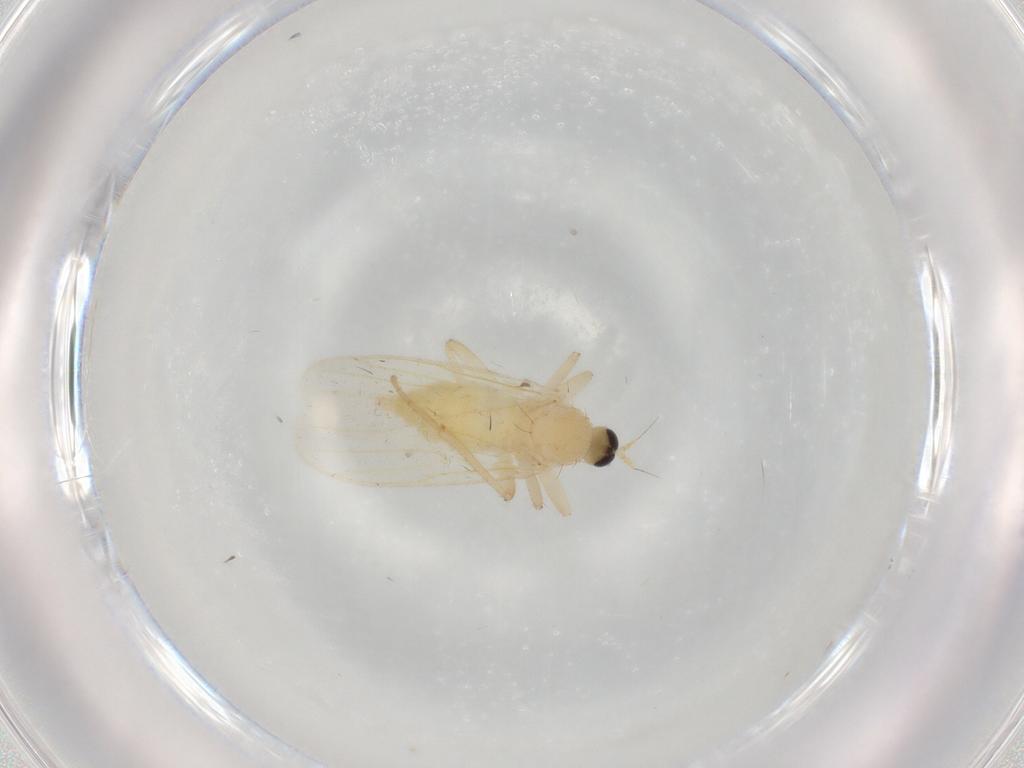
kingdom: Animalia
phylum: Arthropoda
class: Insecta
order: Diptera
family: Hybotidae
